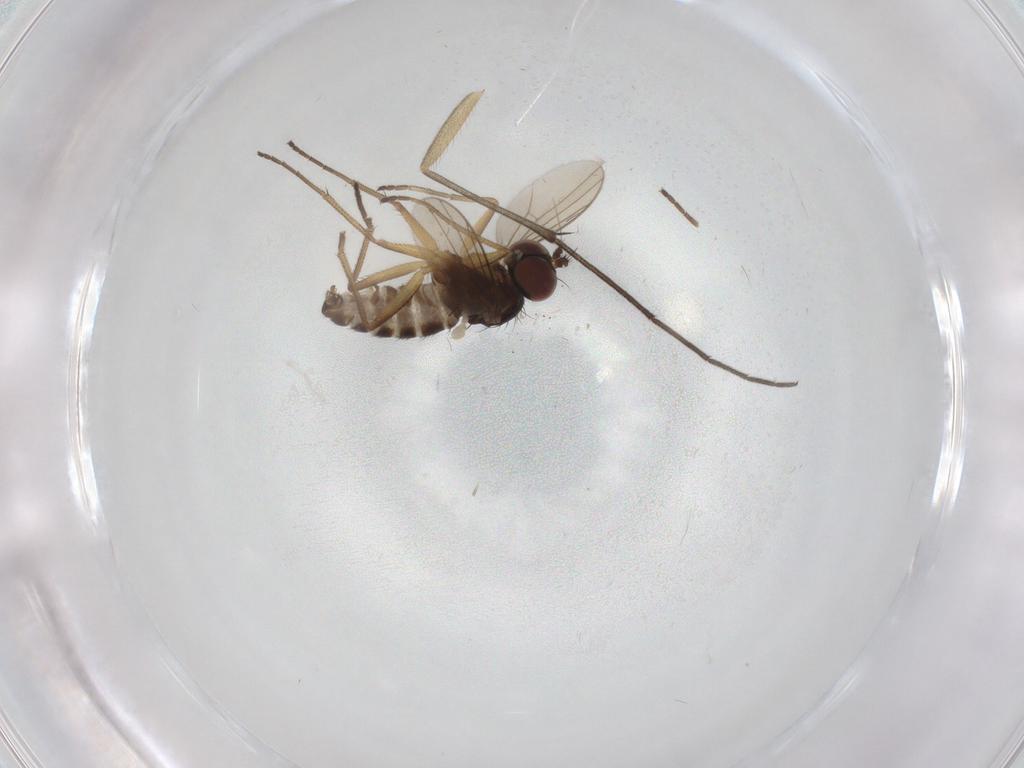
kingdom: Animalia
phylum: Arthropoda
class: Insecta
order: Diptera
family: Dolichopodidae
